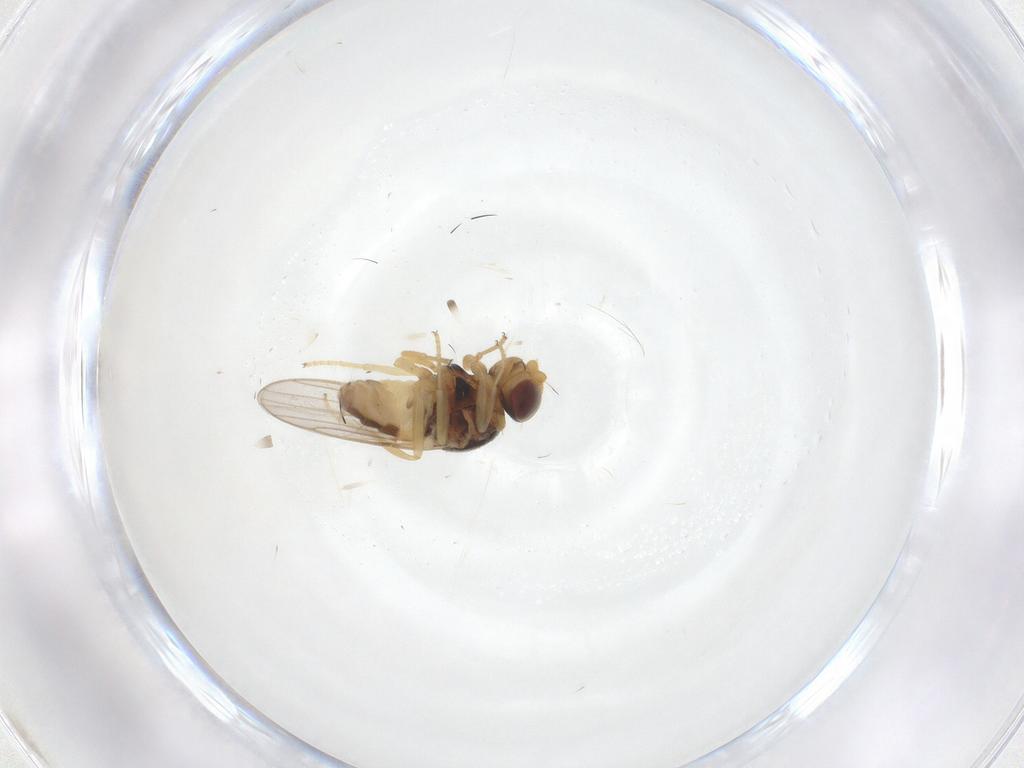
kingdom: Animalia
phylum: Arthropoda
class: Insecta
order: Diptera
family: Chloropidae
